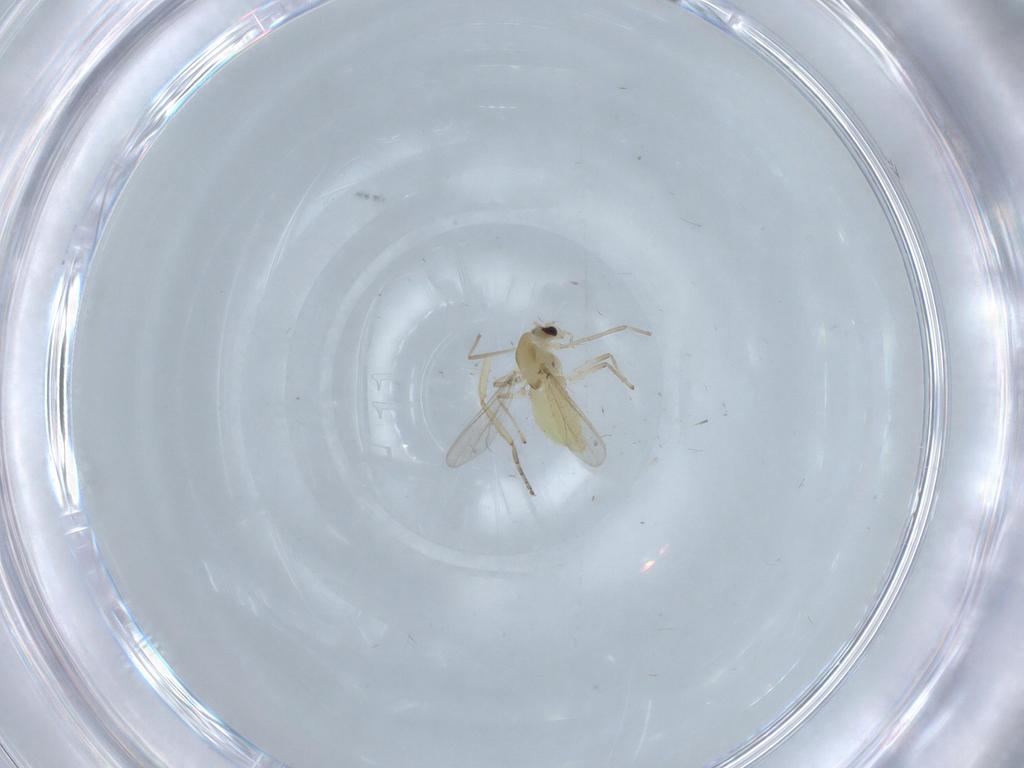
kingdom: Animalia
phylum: Arthropoda
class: Insecta
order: Diptera
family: Ceratopogonidae
